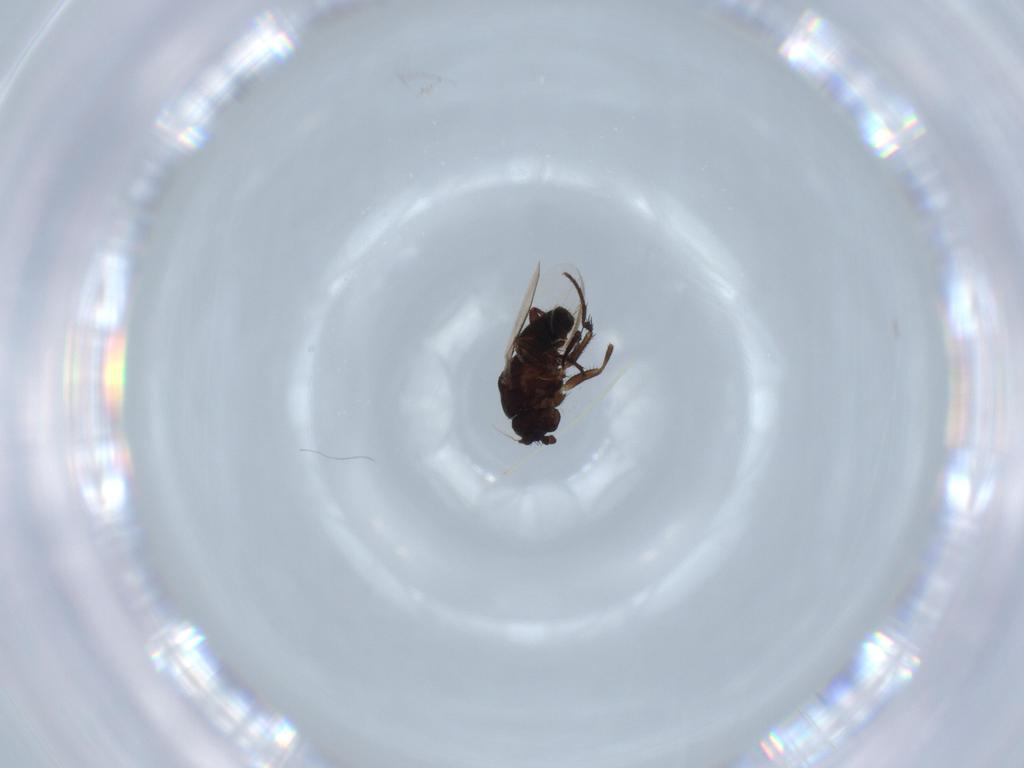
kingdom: Animalia
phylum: Arthropoda
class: Insecta
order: Diptera
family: Sphaeroceridae
